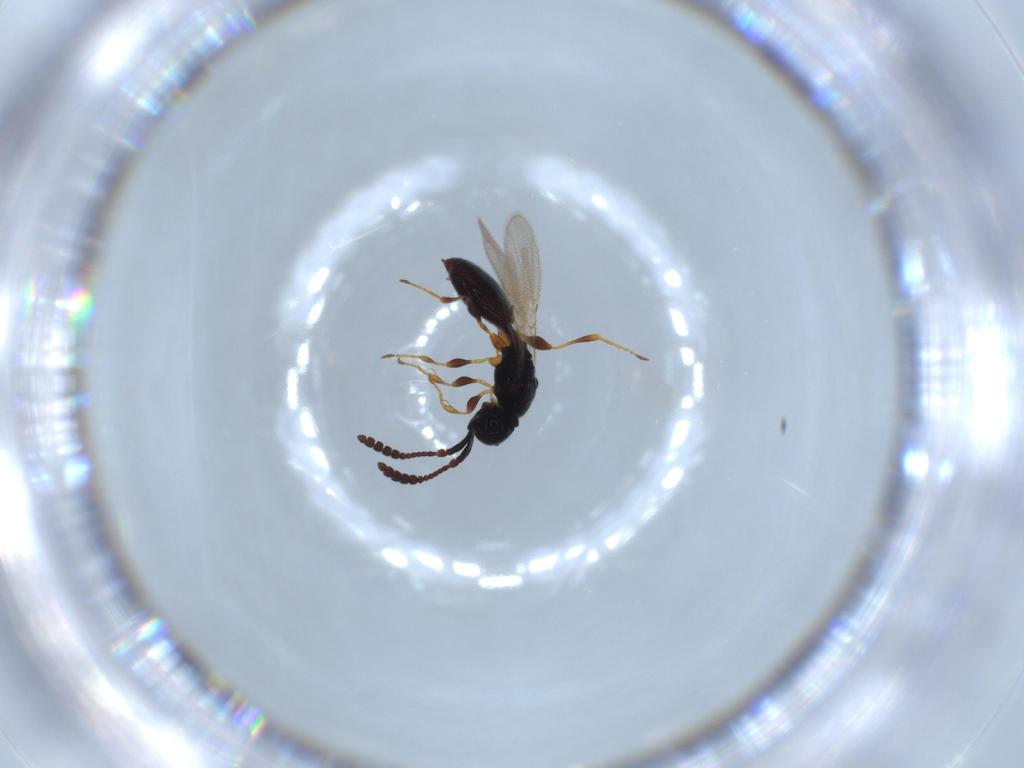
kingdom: Animalia
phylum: Arthropoda
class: Insecta
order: Hymenoptera
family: Diapriidae
